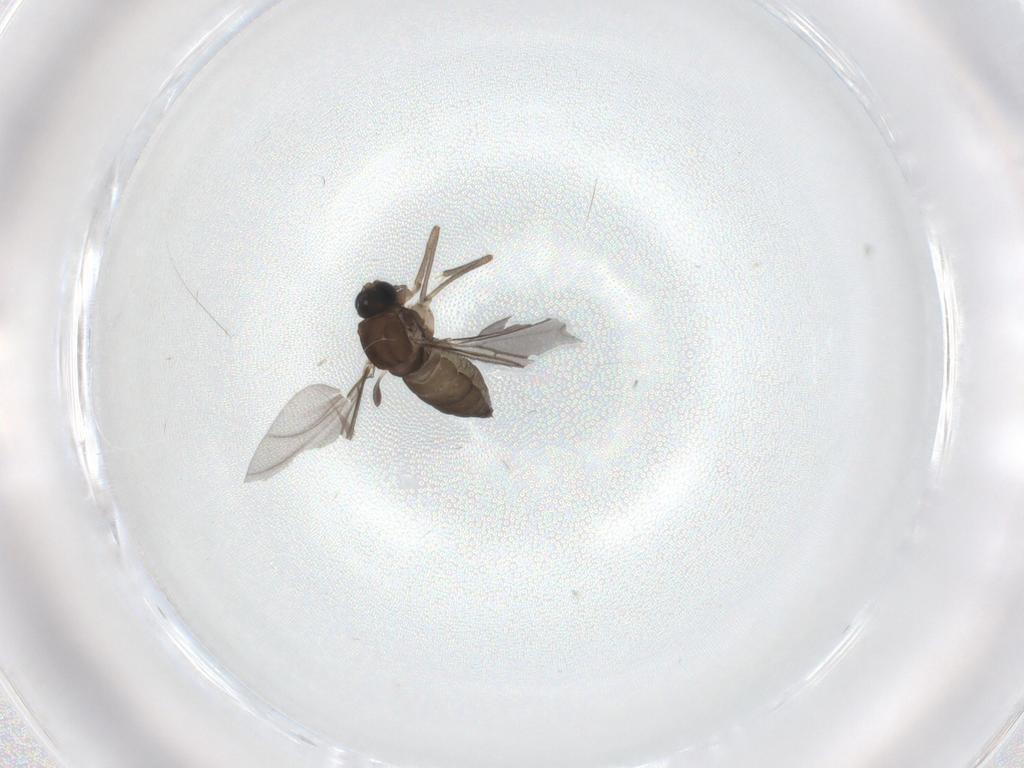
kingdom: Animalia
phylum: Arthropoda
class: Insecta
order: Diptera
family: Sciaridae
